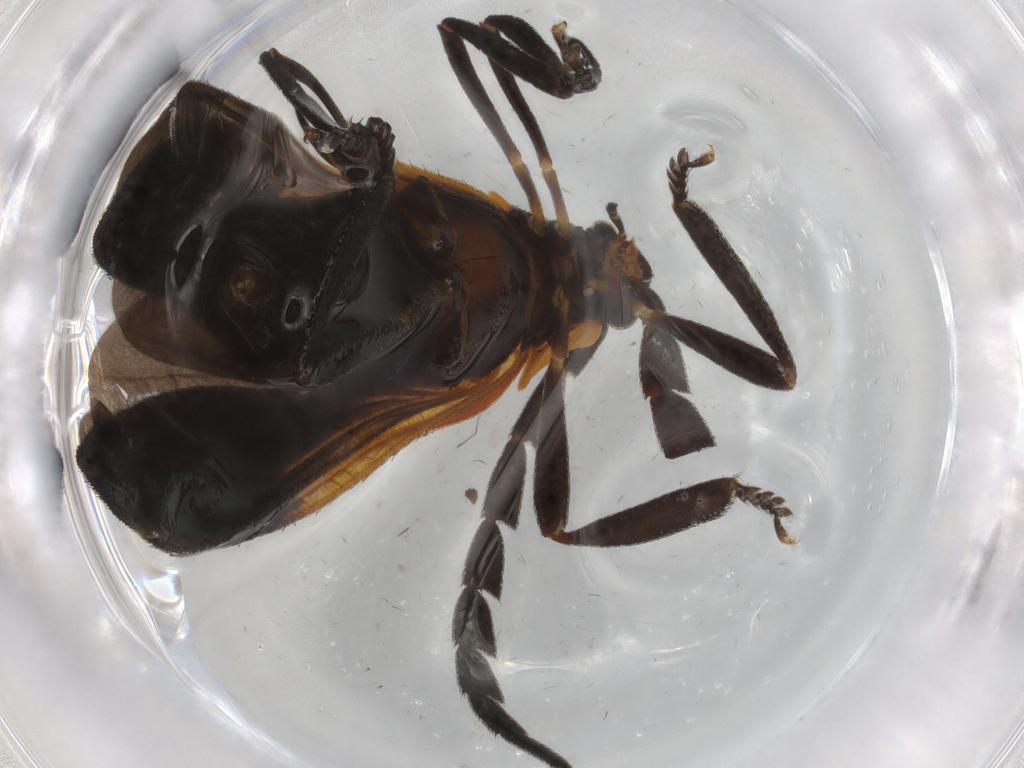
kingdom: Animalia
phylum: Arthropoda
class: Insecta
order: Coleoptera
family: Lycidae
